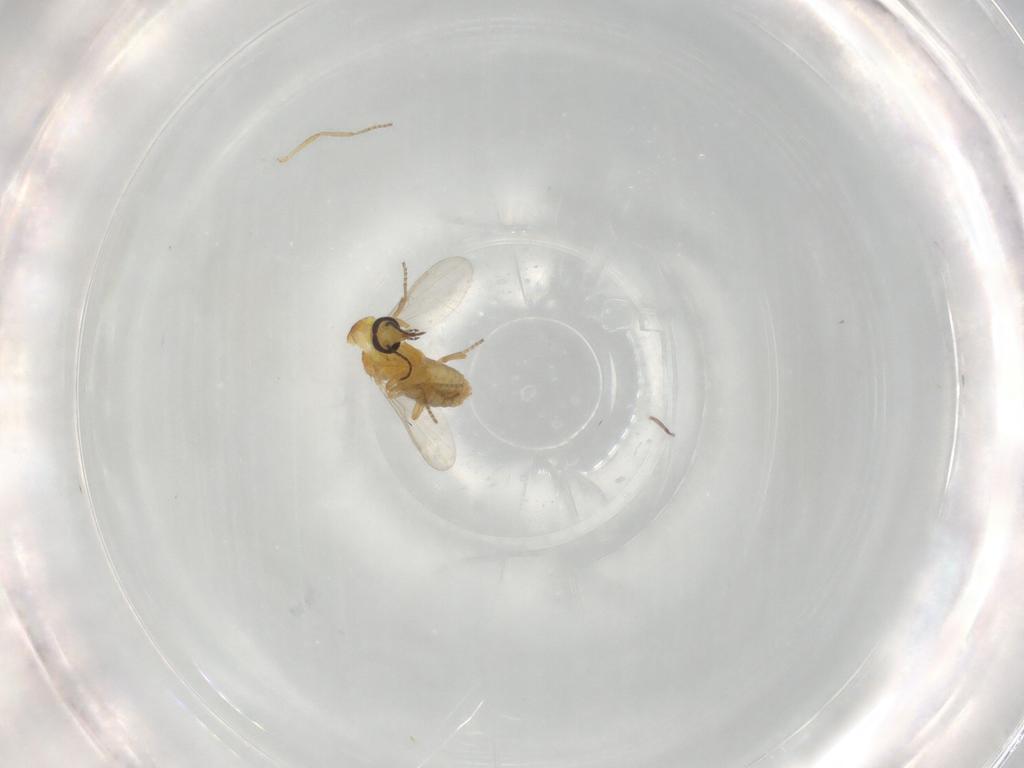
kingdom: Animalia
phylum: Arthropoda
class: Insecta
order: Diptera
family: Ceratopogonidae
